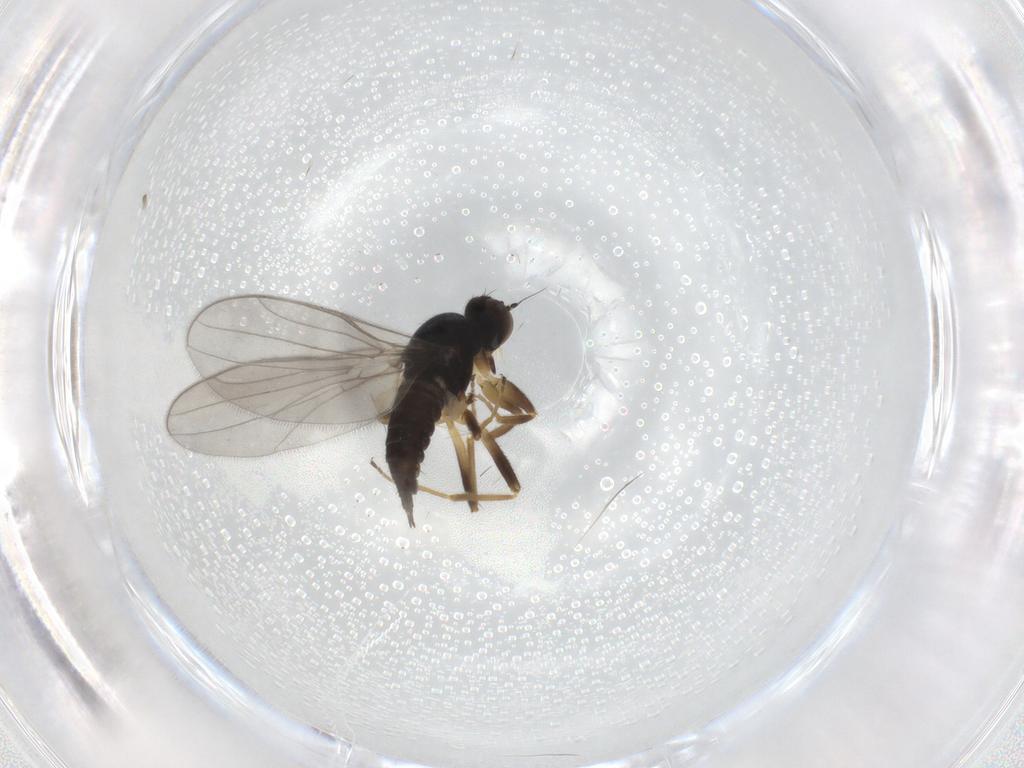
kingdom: Animalia
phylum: Arthropoda
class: Insecta
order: Diptera
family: Hybotidae
